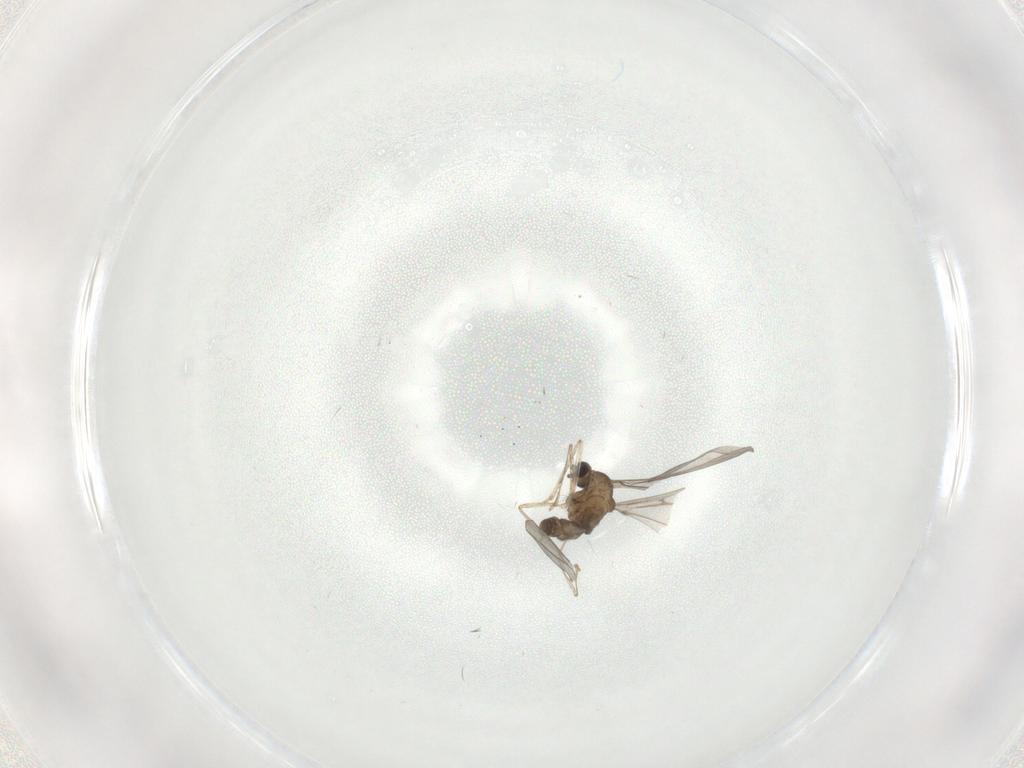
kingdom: Animalia
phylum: Arthropoda
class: Insecta
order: Diptera
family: Cecidomyiidae
